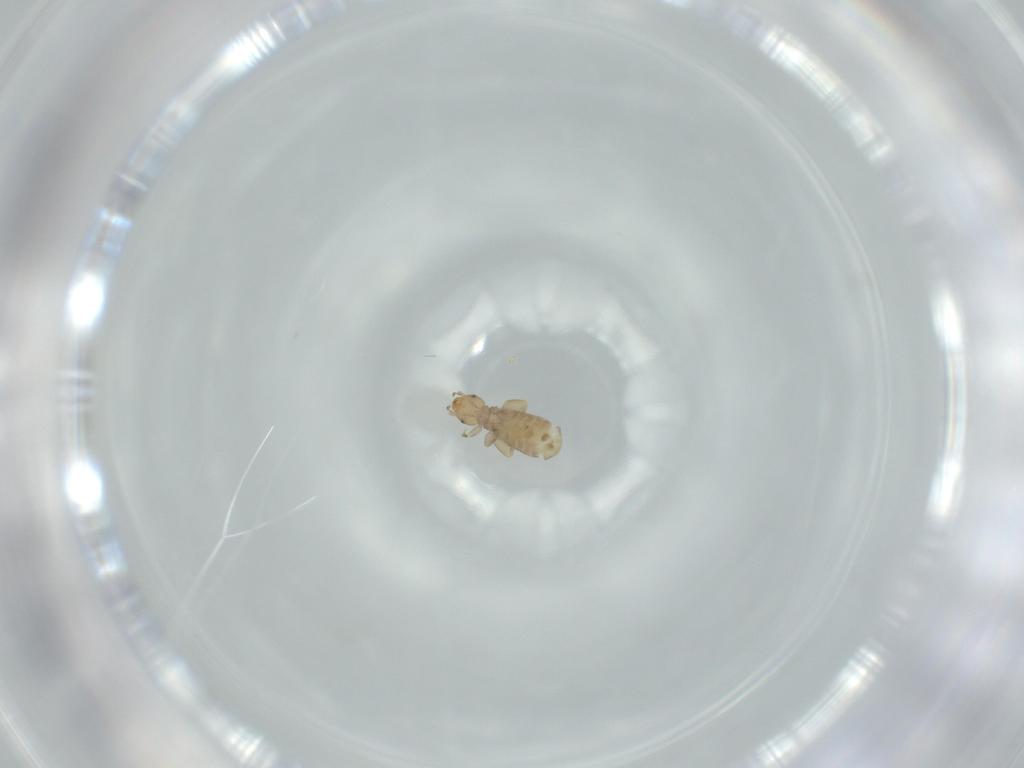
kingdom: Animalia
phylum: Arthropoda
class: Insecta
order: Psocodea
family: Liposcelididae
